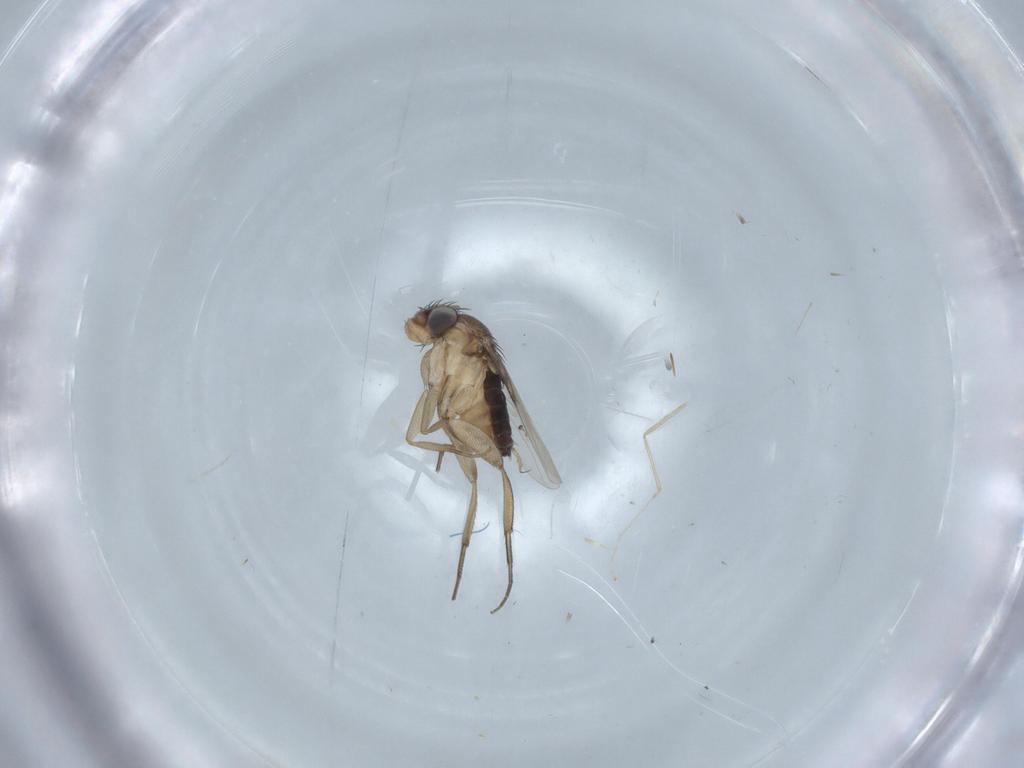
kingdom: Animalia
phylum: Arthropoda
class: Insecta
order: Diptera
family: Chironomidae
